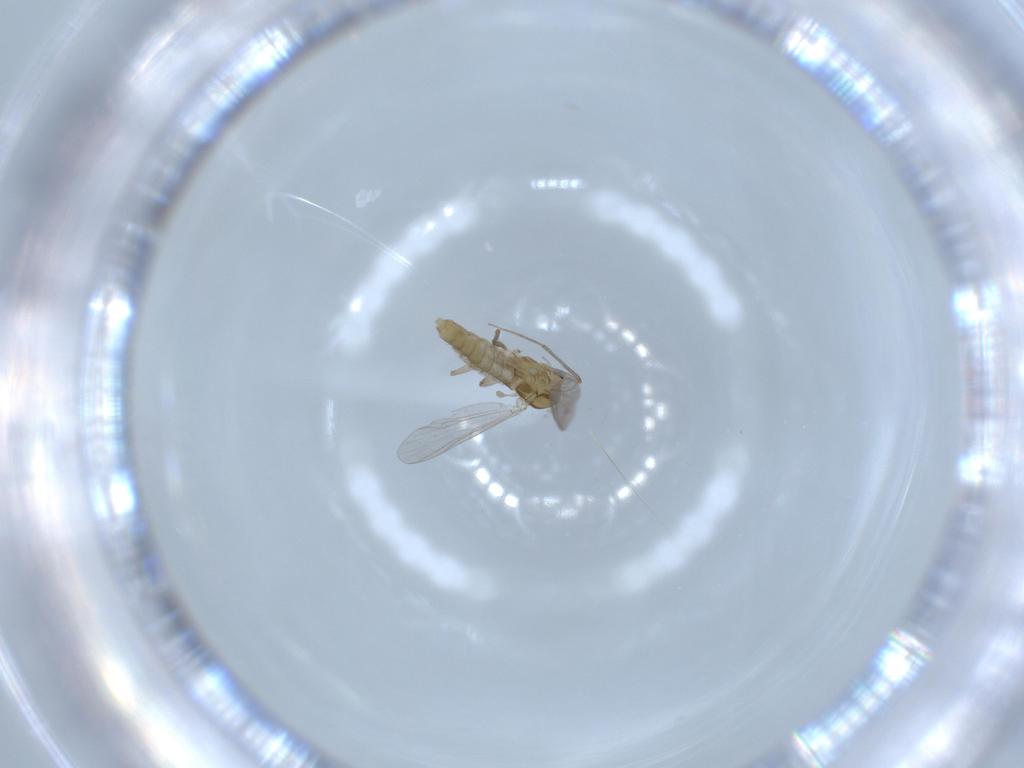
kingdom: Animalia
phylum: Arthropoda
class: Insecta
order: Diptera
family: Chironomidae
